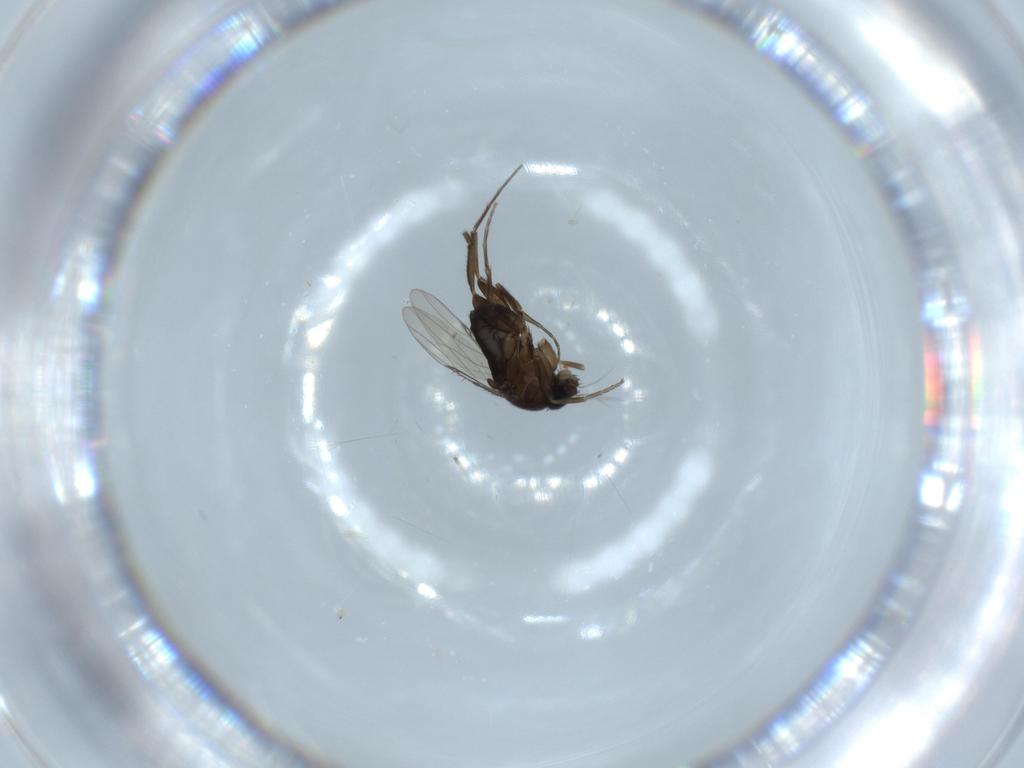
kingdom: Animalia
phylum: Arthropoda
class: Insecta
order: Diptera
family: Phoridae
